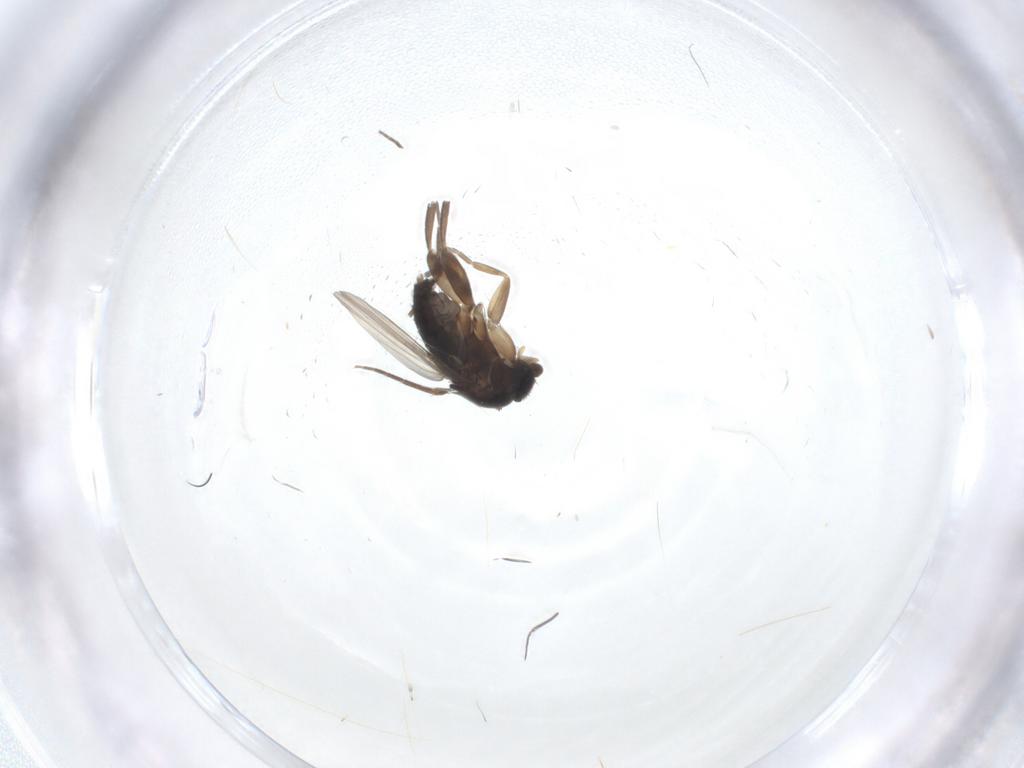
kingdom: Animalia
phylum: Arthropoda
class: Insecta
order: Diptera
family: Phoridae
